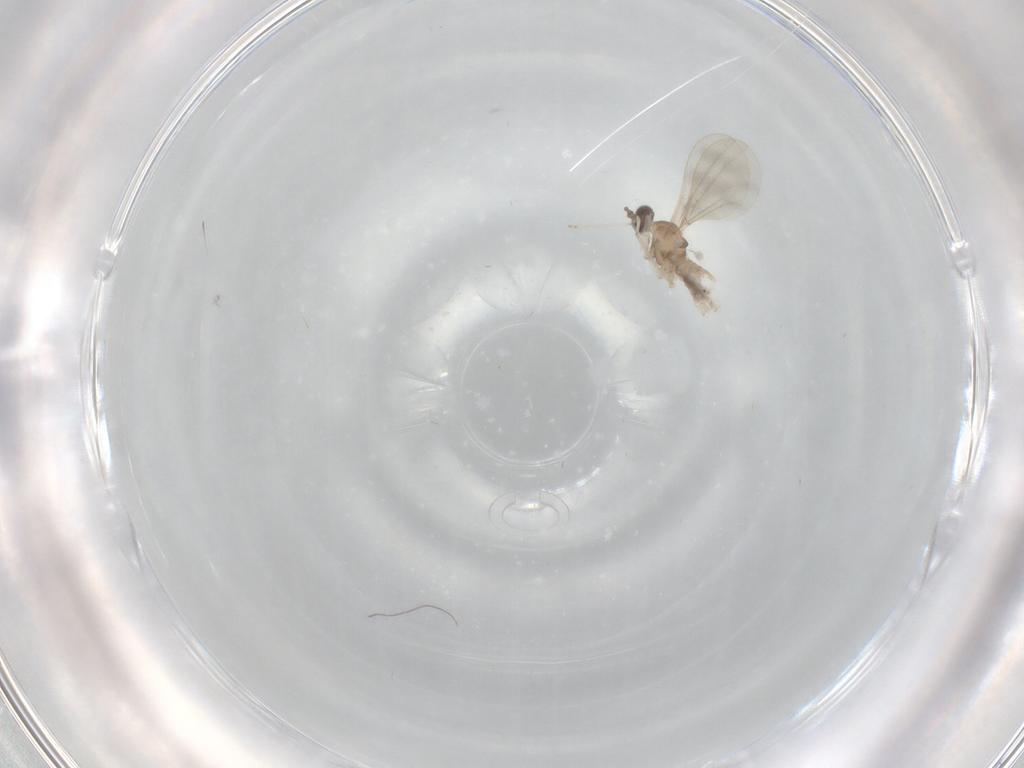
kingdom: Animalia
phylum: Arthropoda
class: Insecta
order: Diptera
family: Cecidomyiidae
